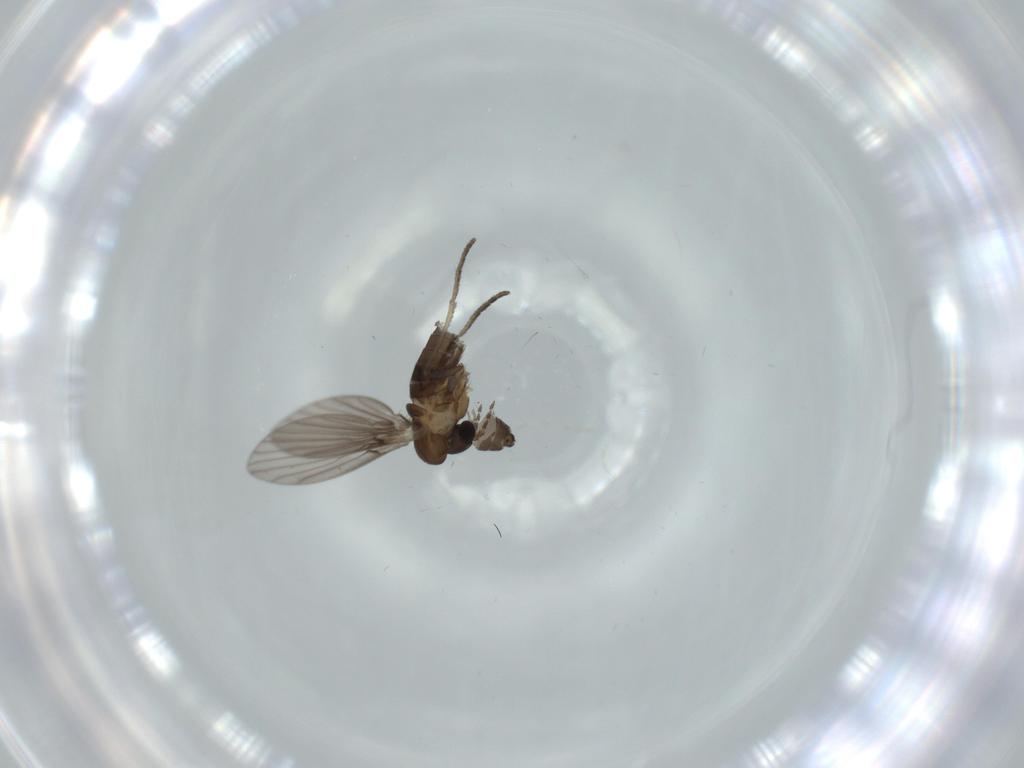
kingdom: Animalia
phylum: Arthropoda
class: Insecta
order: Diptera
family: Psychodidae
